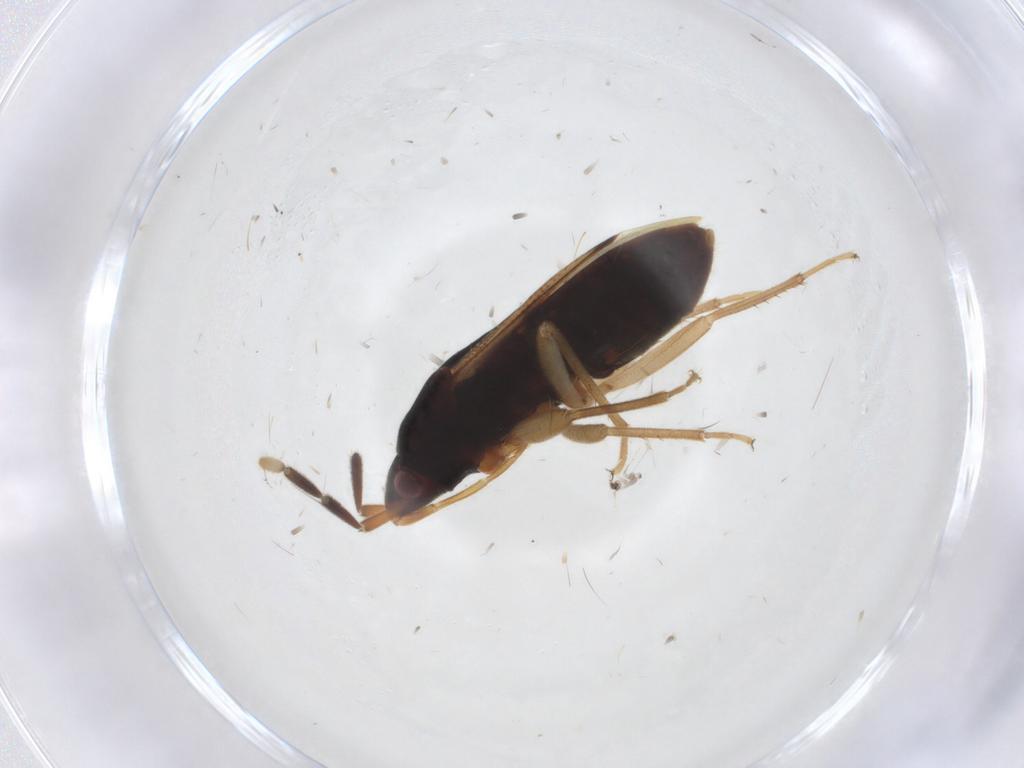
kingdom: Animalia
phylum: Arthropoda
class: Insecta
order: Hemiptera
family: Rhyparochromidae
